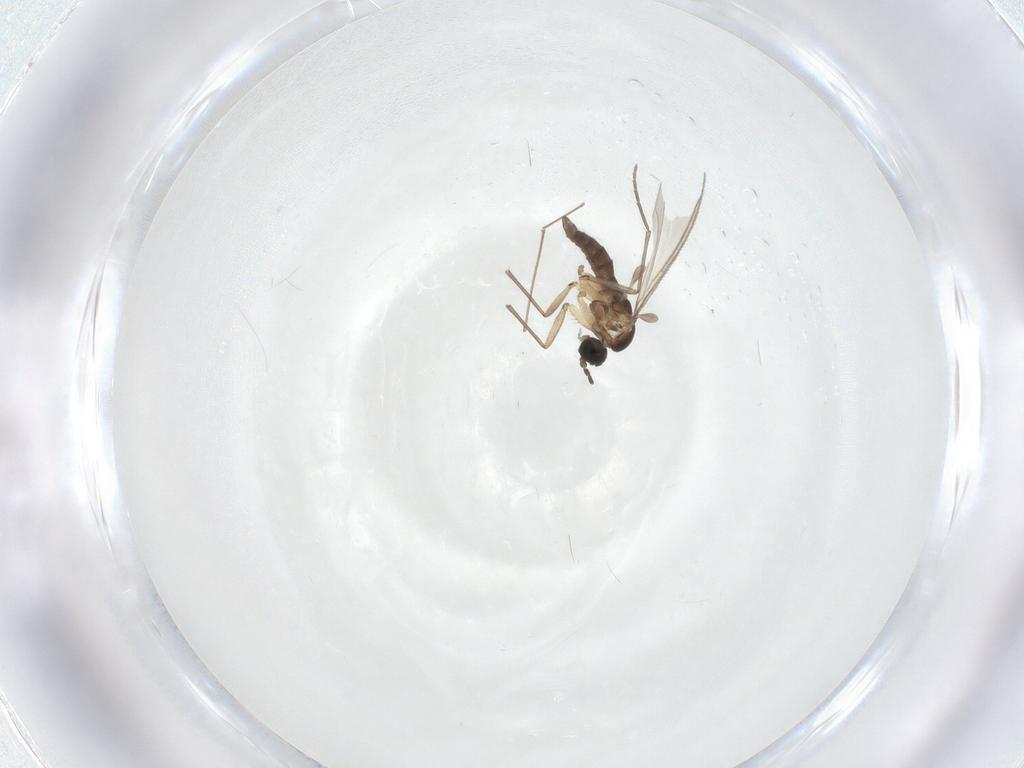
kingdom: Animalia
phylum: Arthropoda
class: Insecta
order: Diptera
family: Sciaridae
